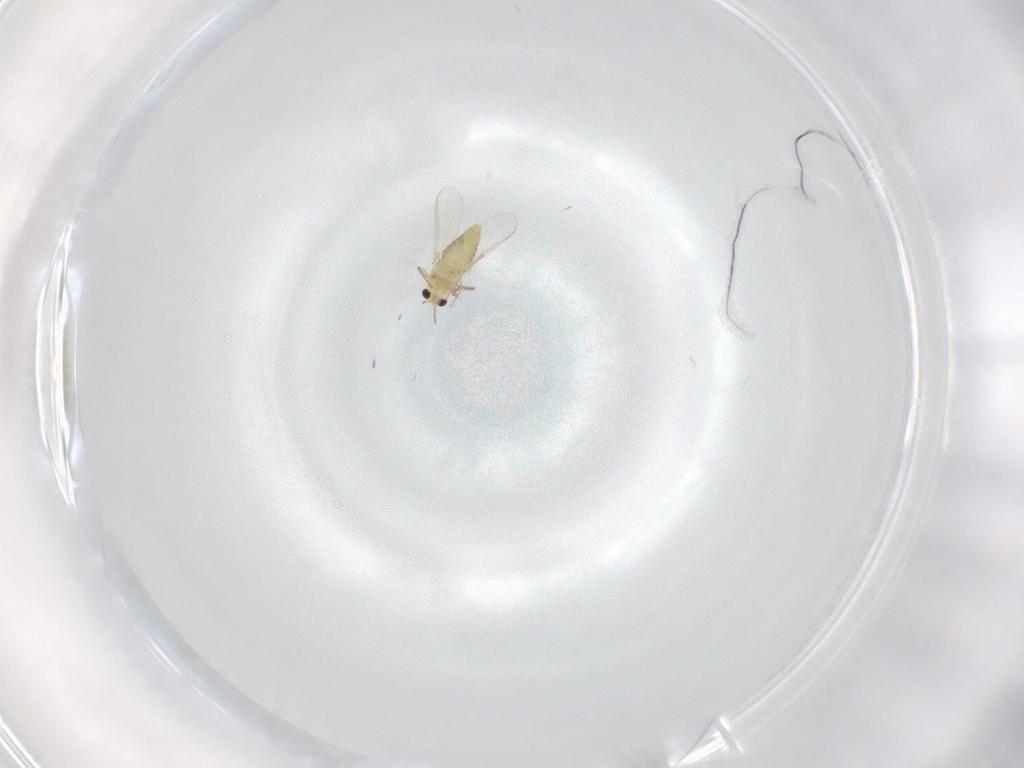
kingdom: Animalia
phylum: Arthropoda
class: Insecta
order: Diptera
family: Chironomidae
